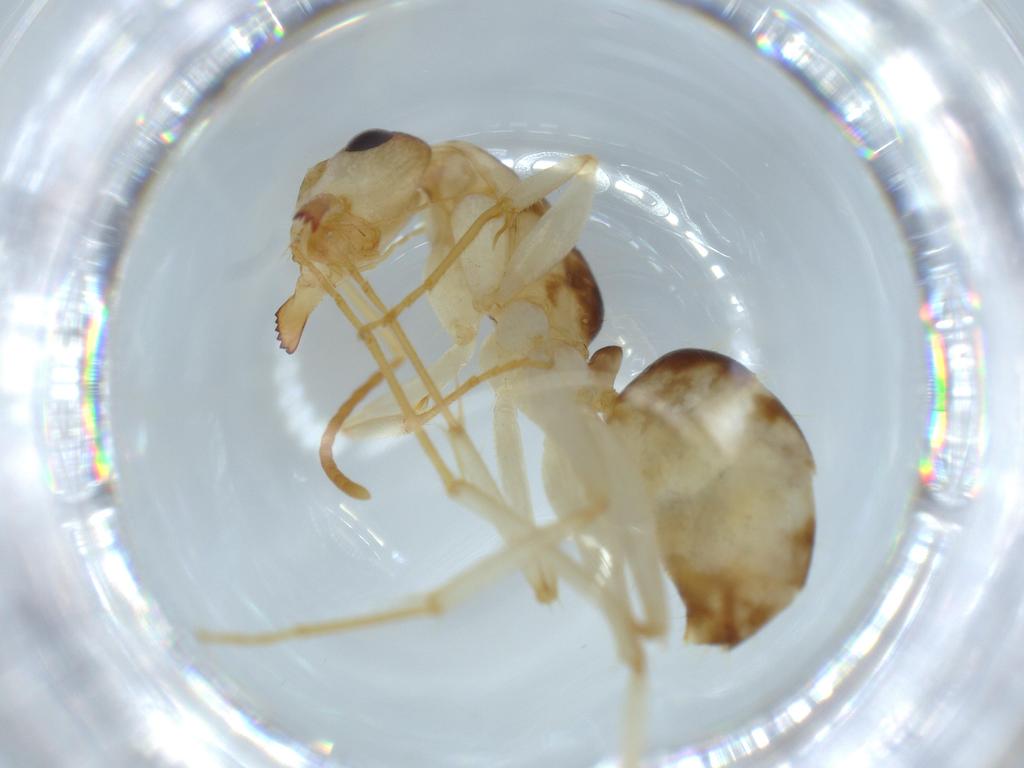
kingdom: Animalia
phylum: Arthropoda
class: Insecta
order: Hymenoptera
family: Formicidae
